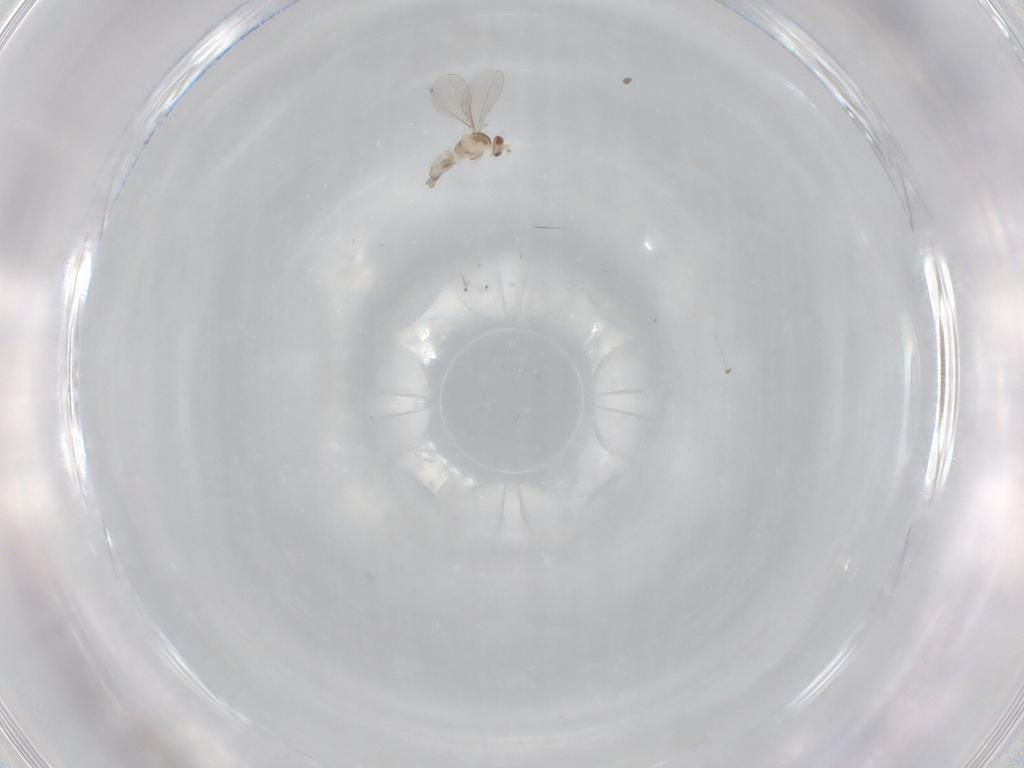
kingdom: Animalia
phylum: Arthropoda
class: Insecta
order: Diptera
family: Cecidomyiidae
